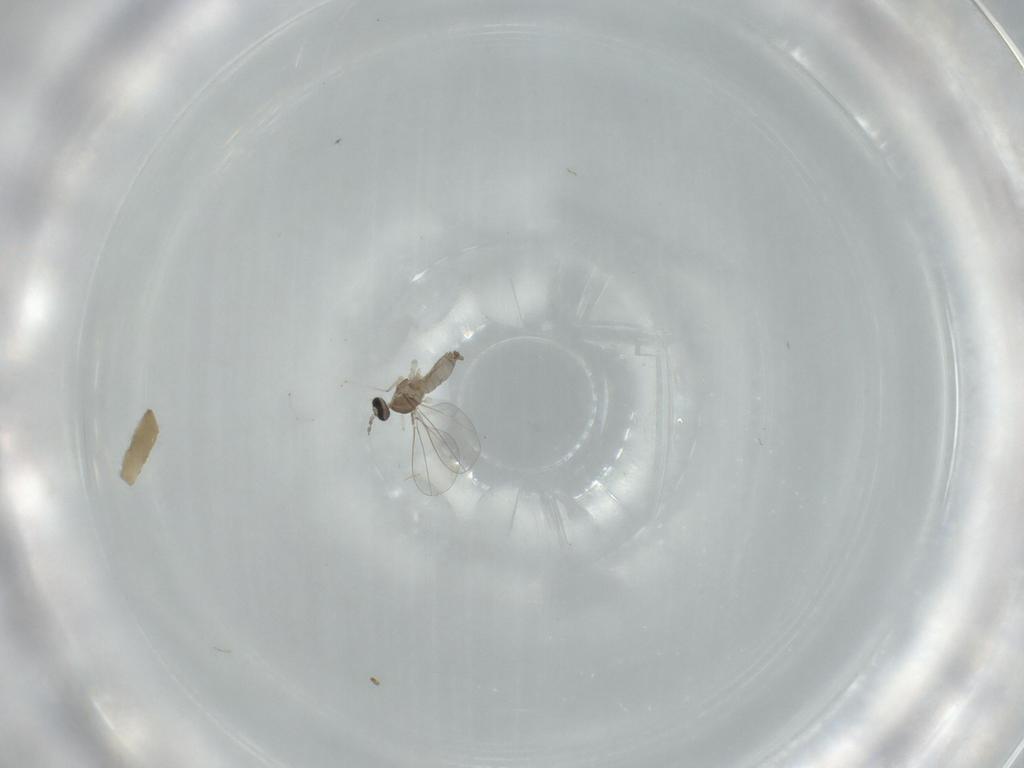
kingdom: Animalia
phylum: Arthropoda
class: Insecta
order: Diptera
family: Cecidomyiidae
